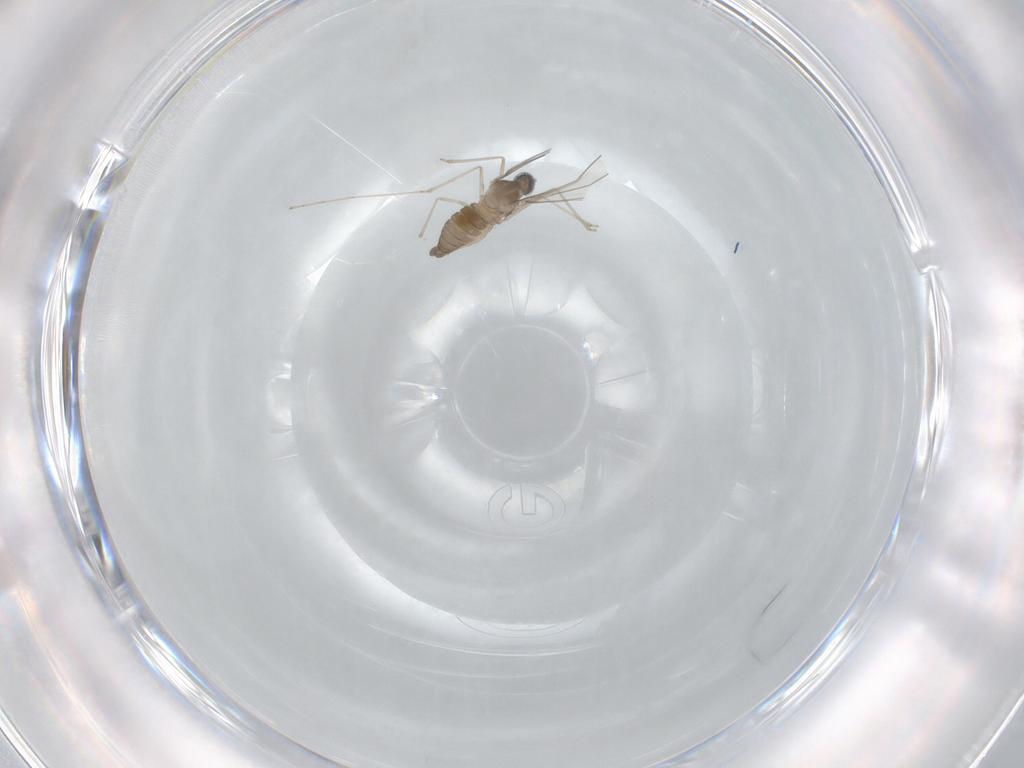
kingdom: Animalia
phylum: Arthropoda
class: Insecta
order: Diptera
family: Cecidomyiidae
